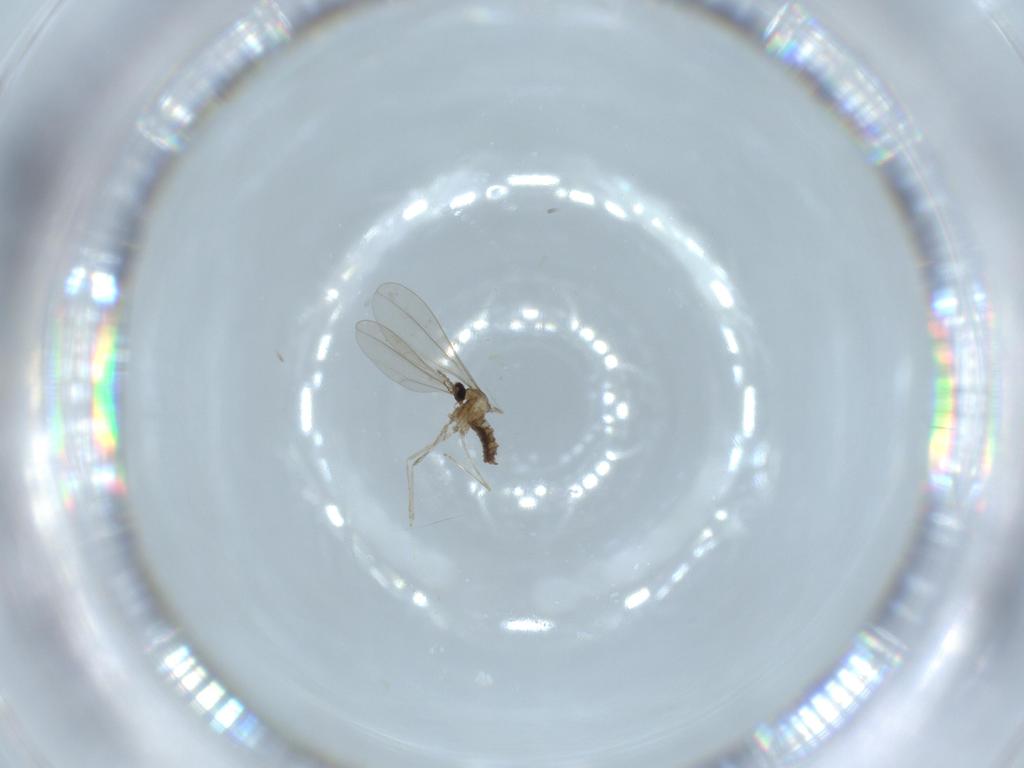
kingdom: Animalia
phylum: Arthropoda
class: Insecta
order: Diptera
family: Cecidomyiidae
